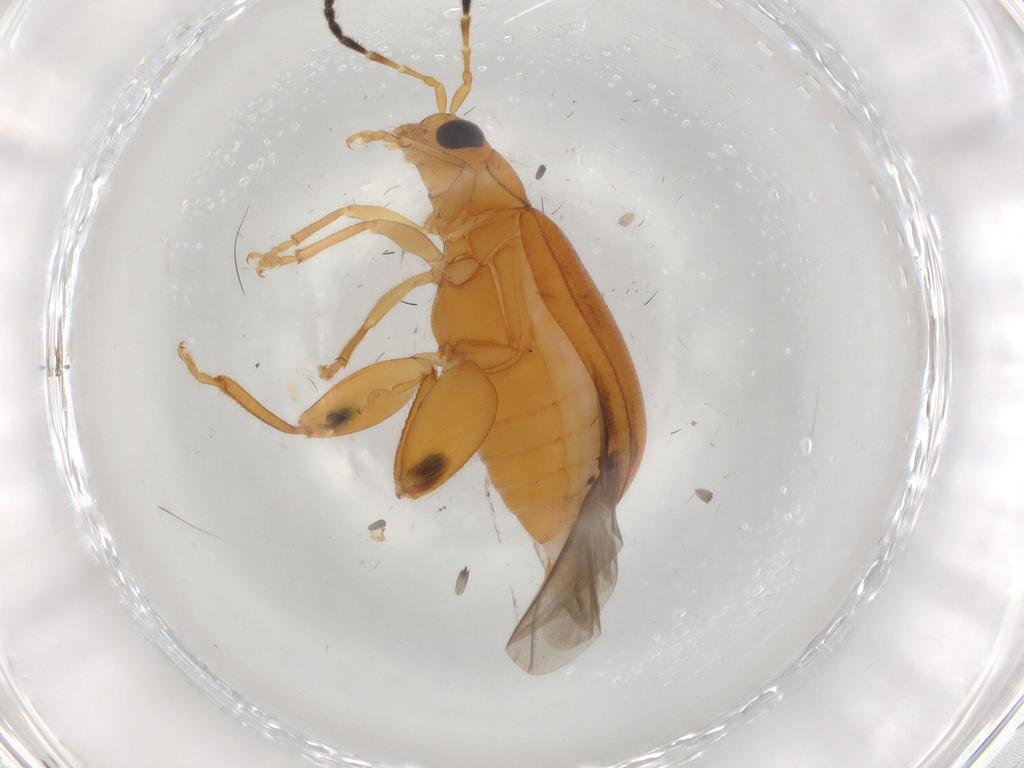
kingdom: Animalia
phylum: Arthropoda
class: Insecta
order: Coleoptera
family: Chrysomelidae
